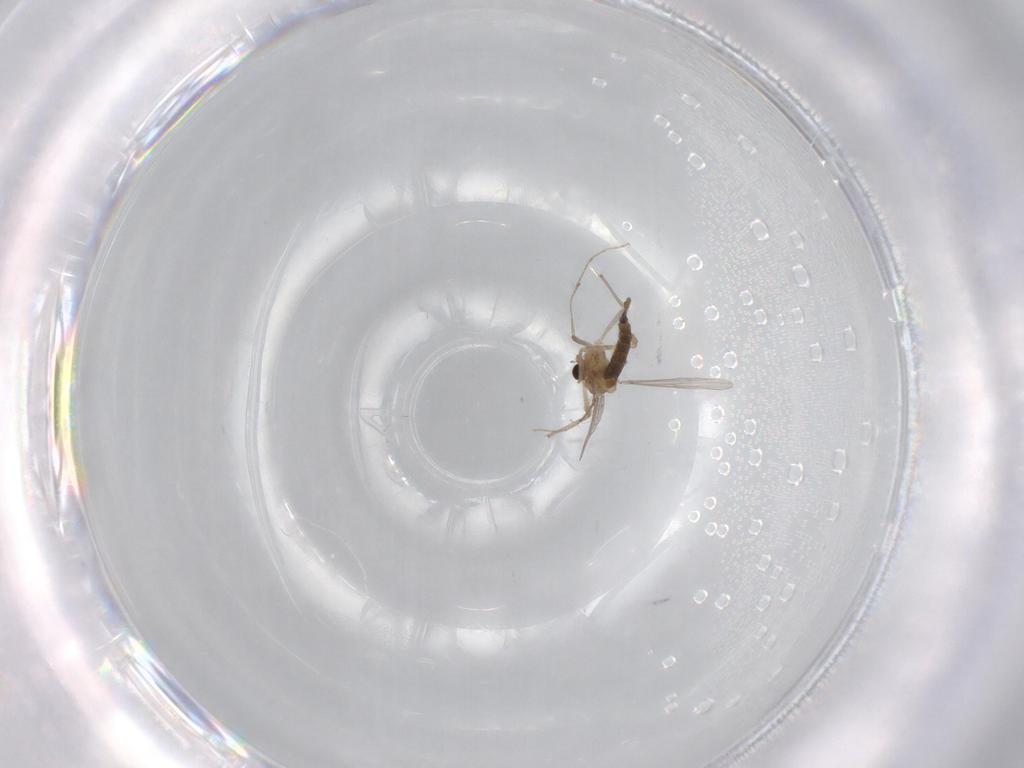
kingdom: Animalia
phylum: Arthropoda
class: Insecta
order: Diptera
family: Chironomidae
